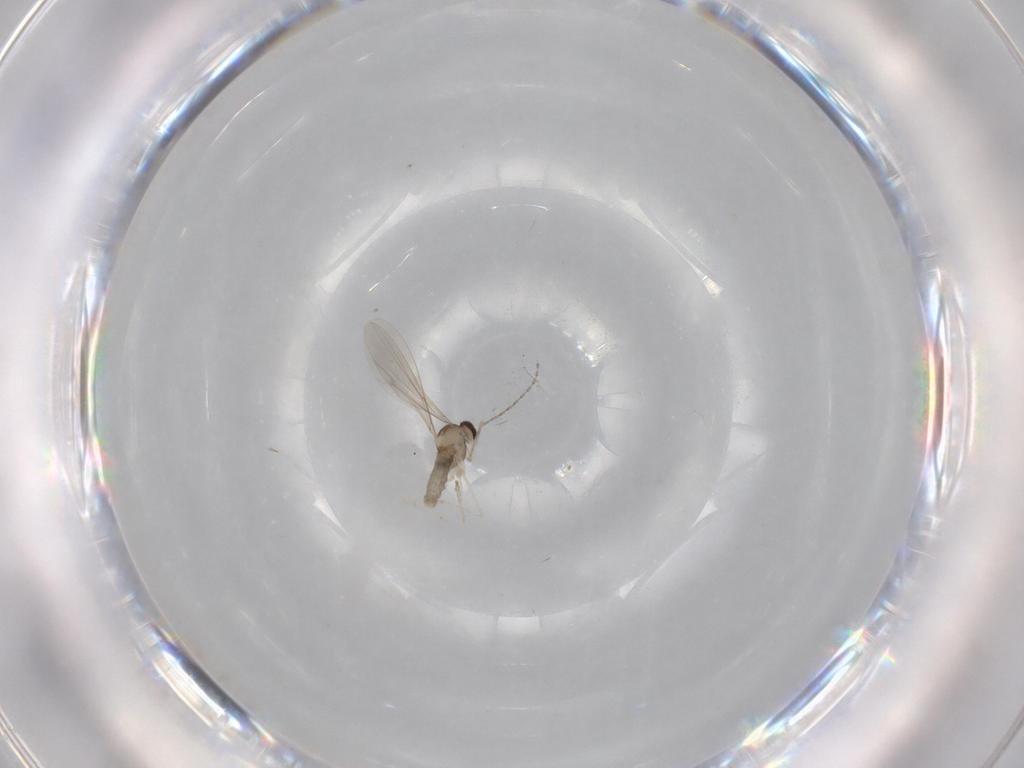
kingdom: Animalia
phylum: Arthropoda
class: Insecta
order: Diptera
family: Cecidomyiidae
